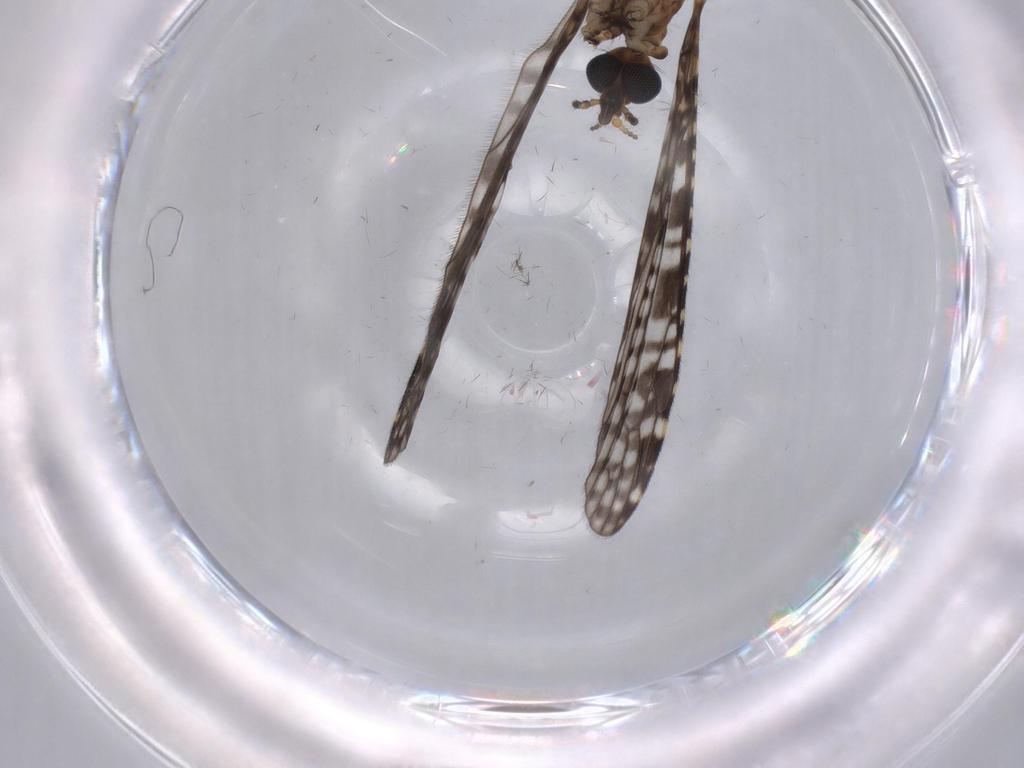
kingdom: Animalia
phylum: Arthropoda
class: Insecta
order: Diptera
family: Cecidomyiidae
